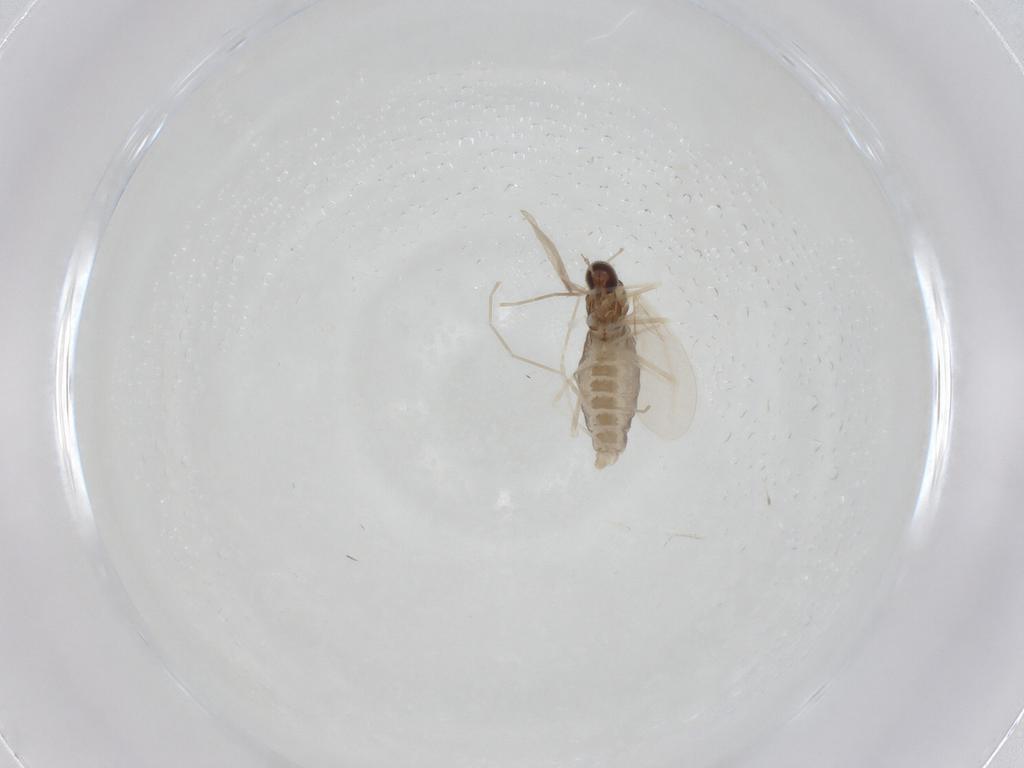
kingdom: Animalia
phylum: Arthropoda
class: Insecta
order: Diptera
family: Cecidomyiidae
